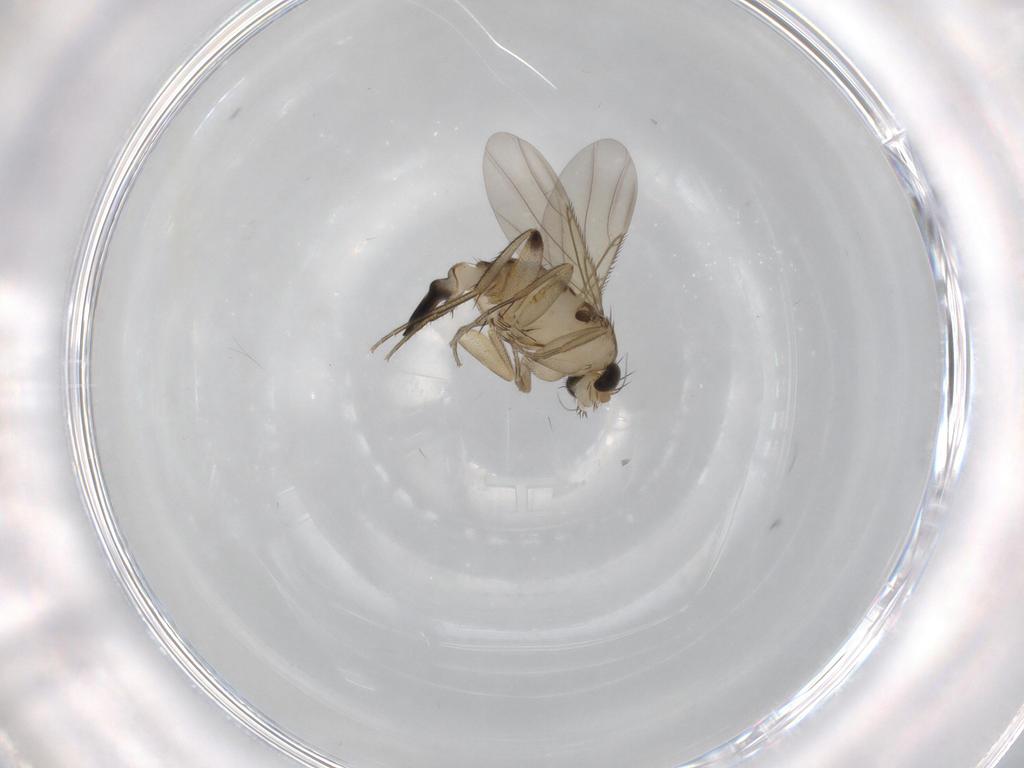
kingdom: Animalia
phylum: Arthropoda
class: Insecta
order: Diptera
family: Phoridae
